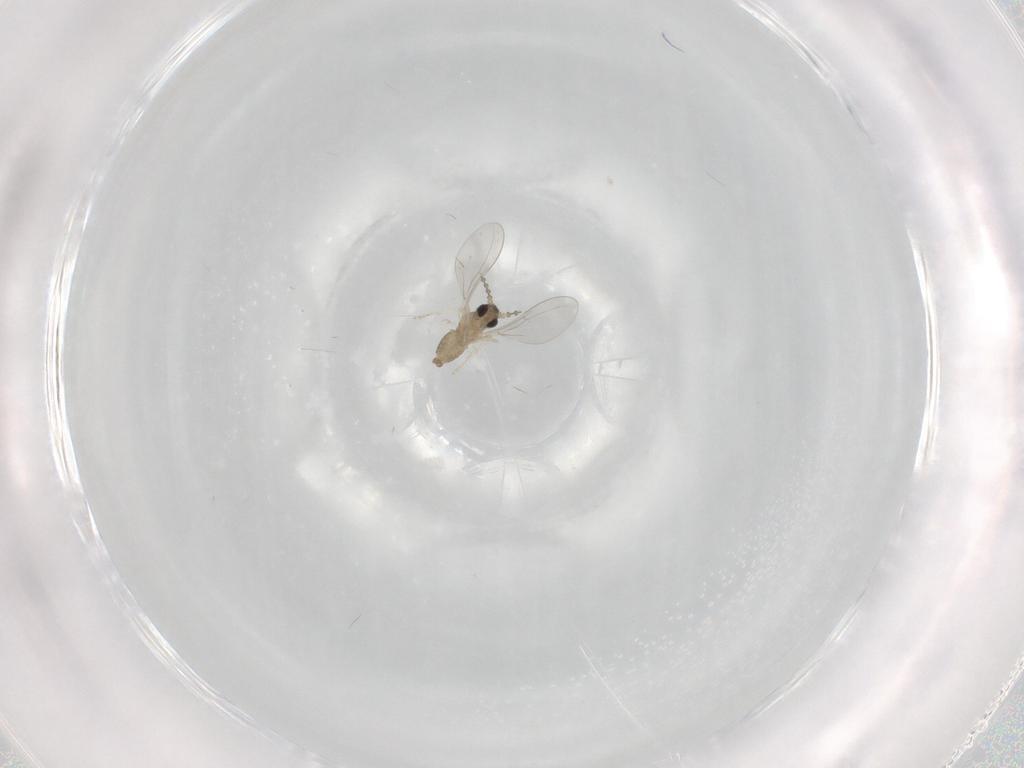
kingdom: Animalia
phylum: Arthropoda
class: Insecta
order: Diptera
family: Cecidomyiidae
